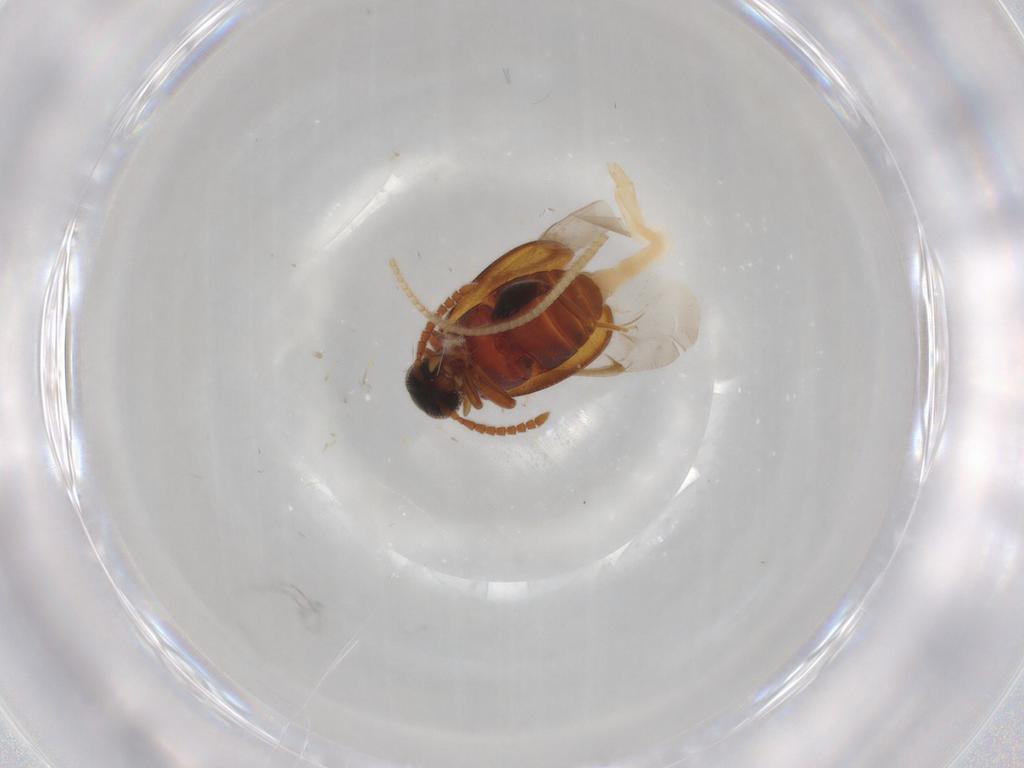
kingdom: Animalia
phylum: Arthropoda
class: Insecta
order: Coleoptera
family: Aderidae
